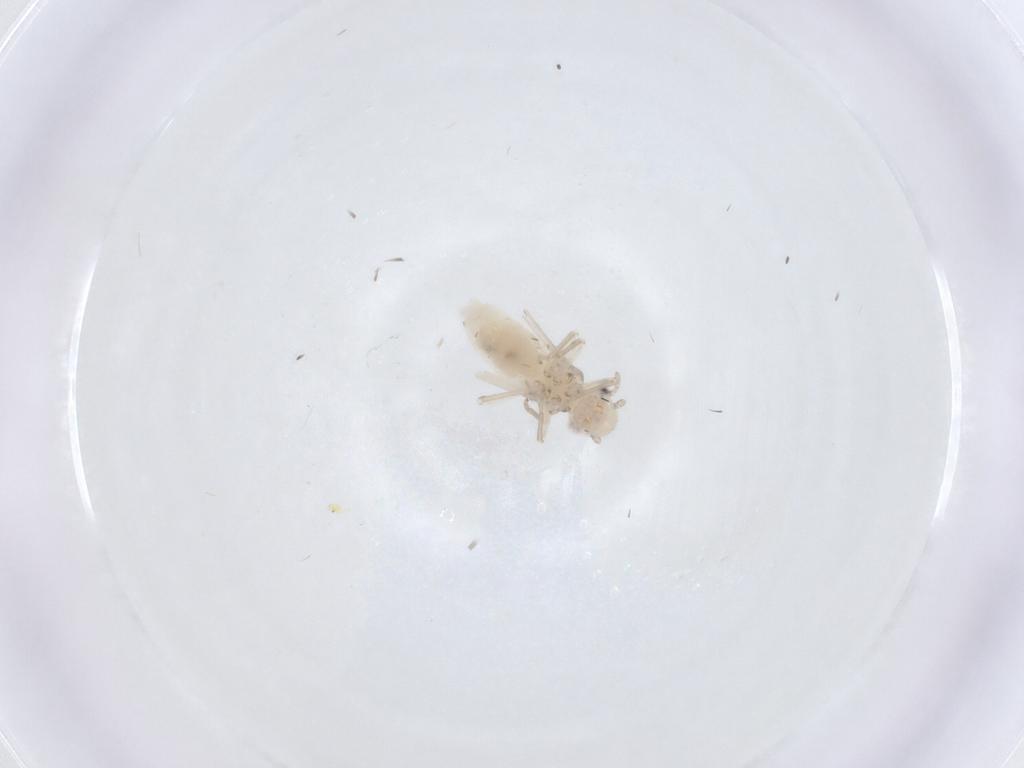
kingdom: Animalia
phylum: Arthropoda
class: Insecta
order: Psocodea
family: Caeciliusidae
